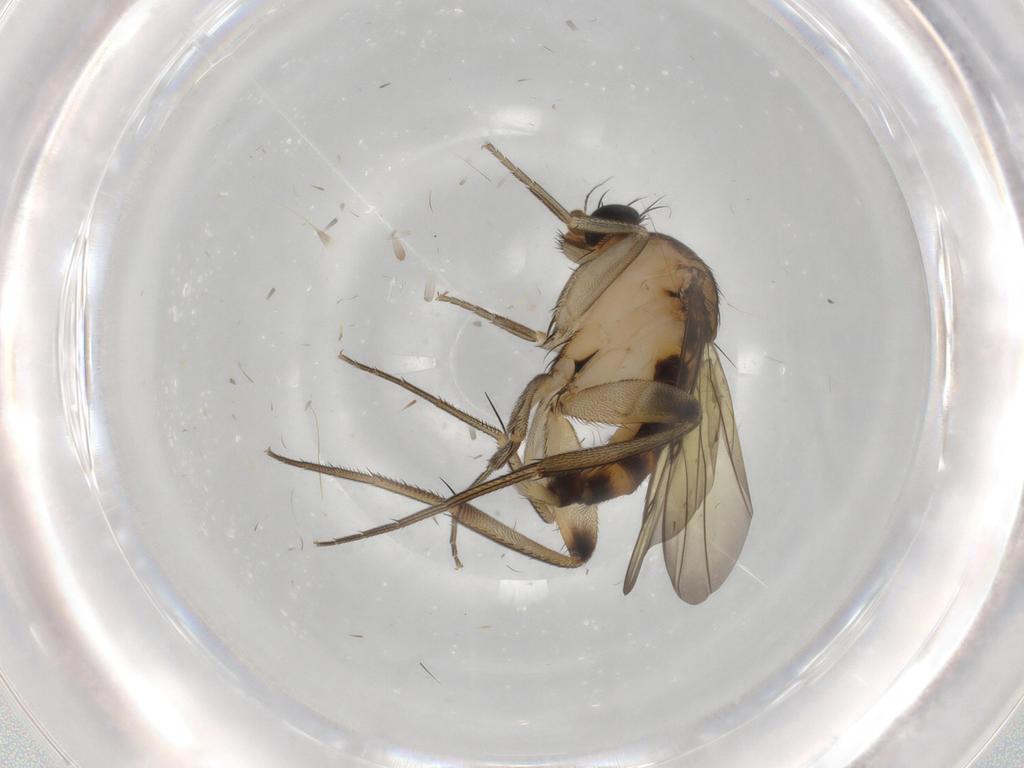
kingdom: Animalia
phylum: Arthropoda
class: Insecta
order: Diptera
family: Phoridae
